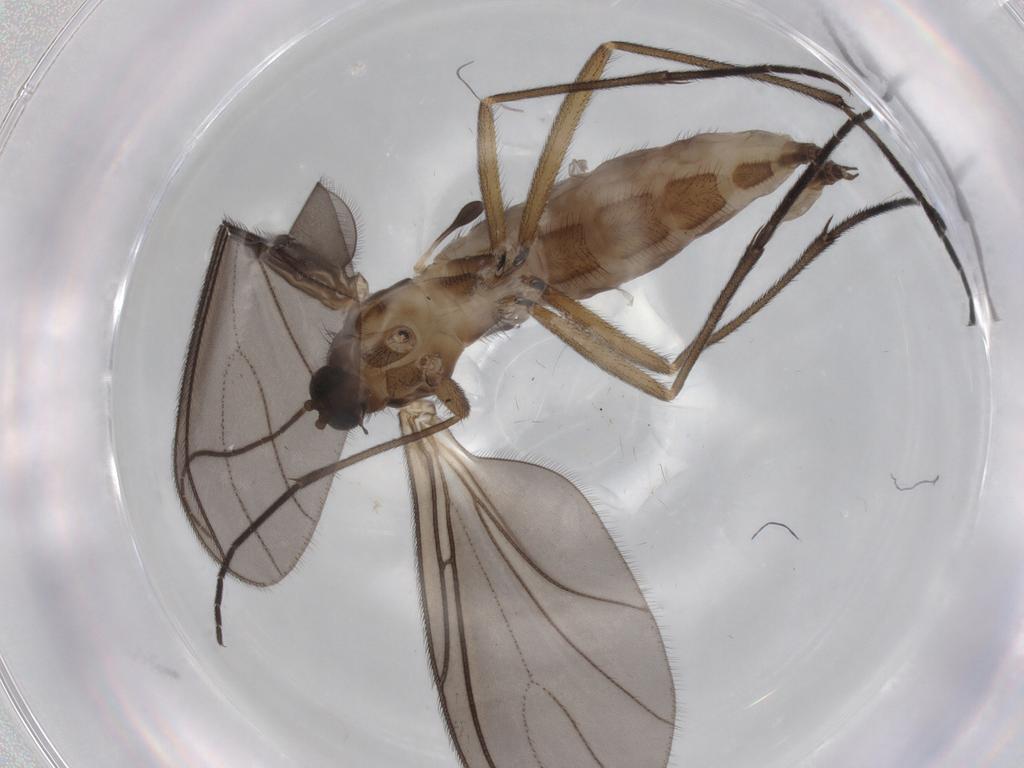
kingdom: Animalia
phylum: Arthropoda
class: Insecta
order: Diptera
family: Sciaridae
